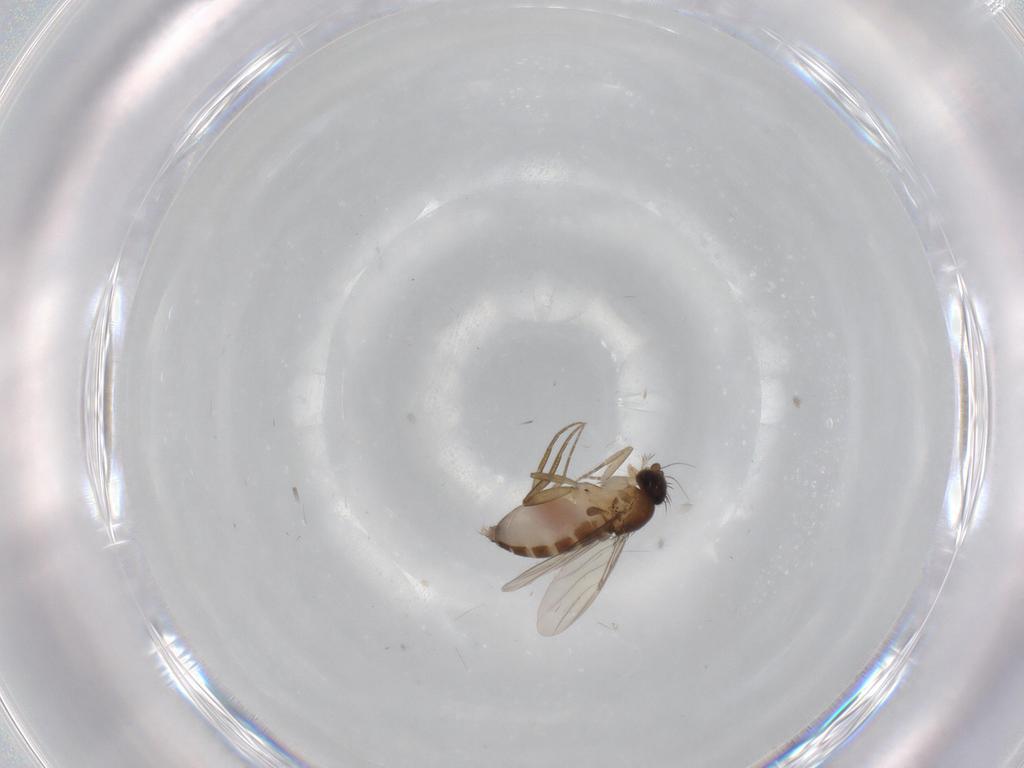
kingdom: Animalia
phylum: Arthropoda
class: Insecta
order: Diptera
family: Phoridae
